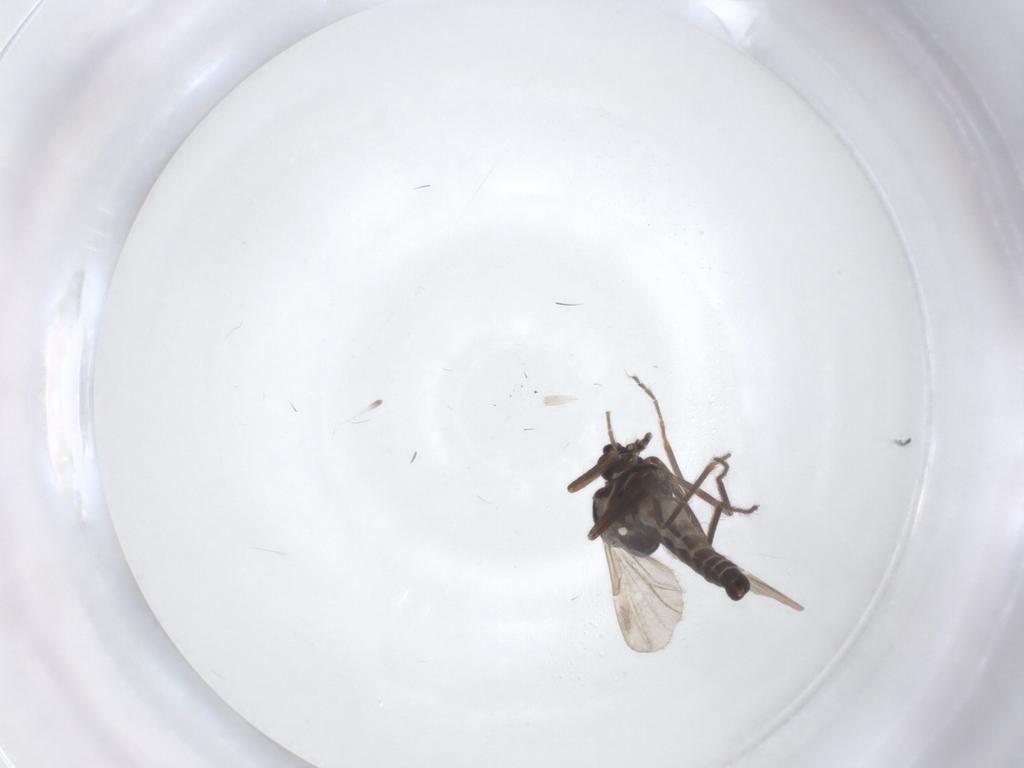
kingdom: Animalia
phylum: Arthropoda
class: Insecta
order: Diptera
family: Ceratopogonidae
